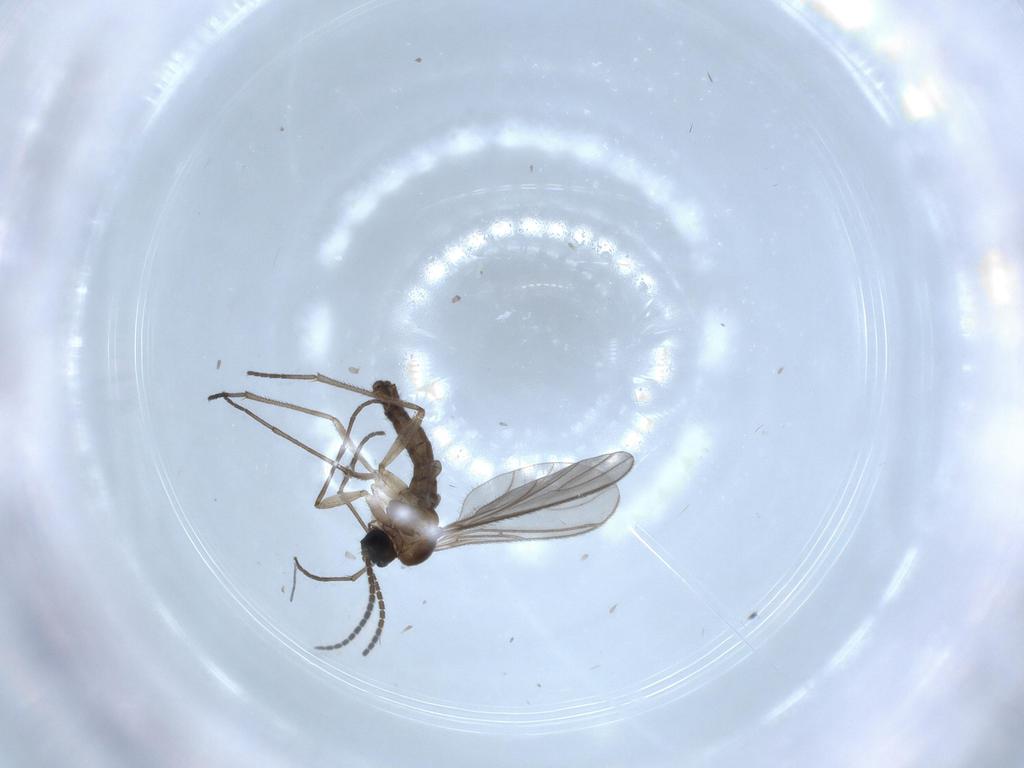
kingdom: Animalia
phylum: Arthropoda
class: Insecta
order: Diptera
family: Sciaridae
